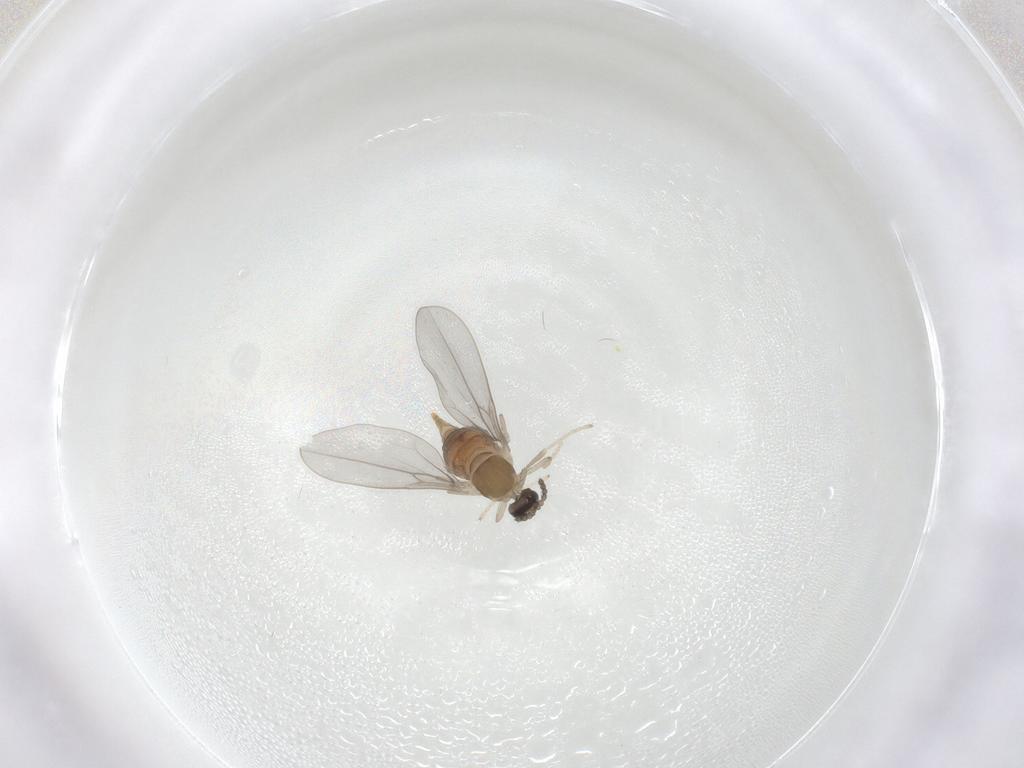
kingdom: Animalia
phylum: Arthropoda
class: Insecta
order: Diptera
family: Cecidomyiidae
